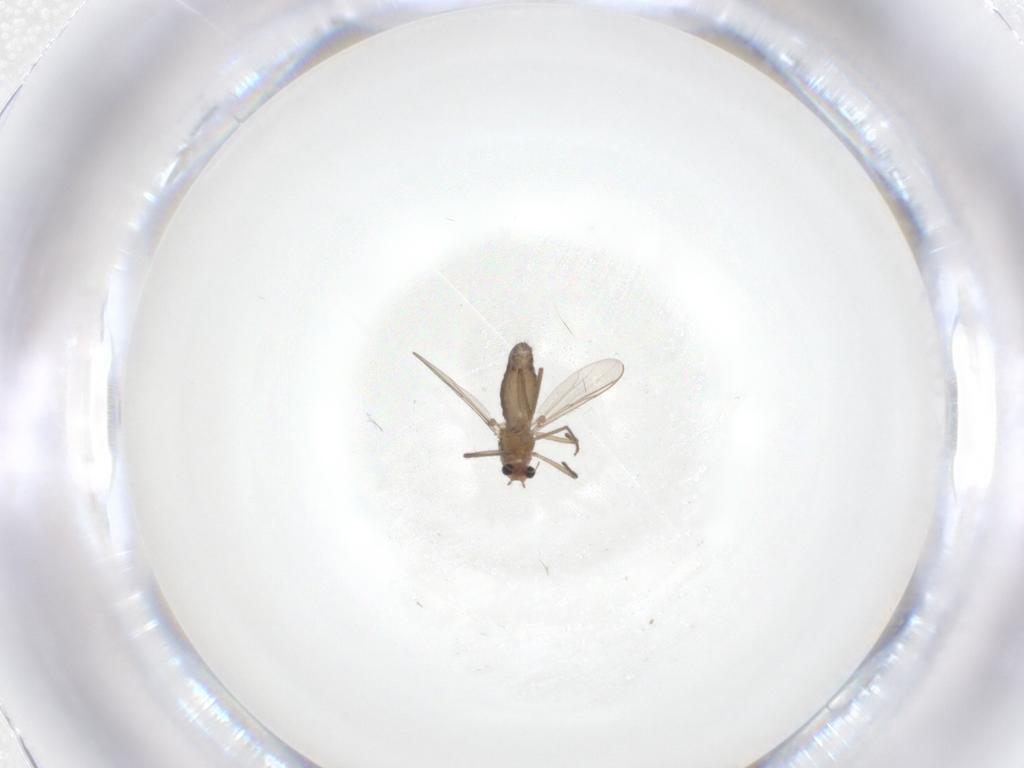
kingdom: Animalia
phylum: Arthropoda
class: Insecta
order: Diptera
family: Chironomidae
